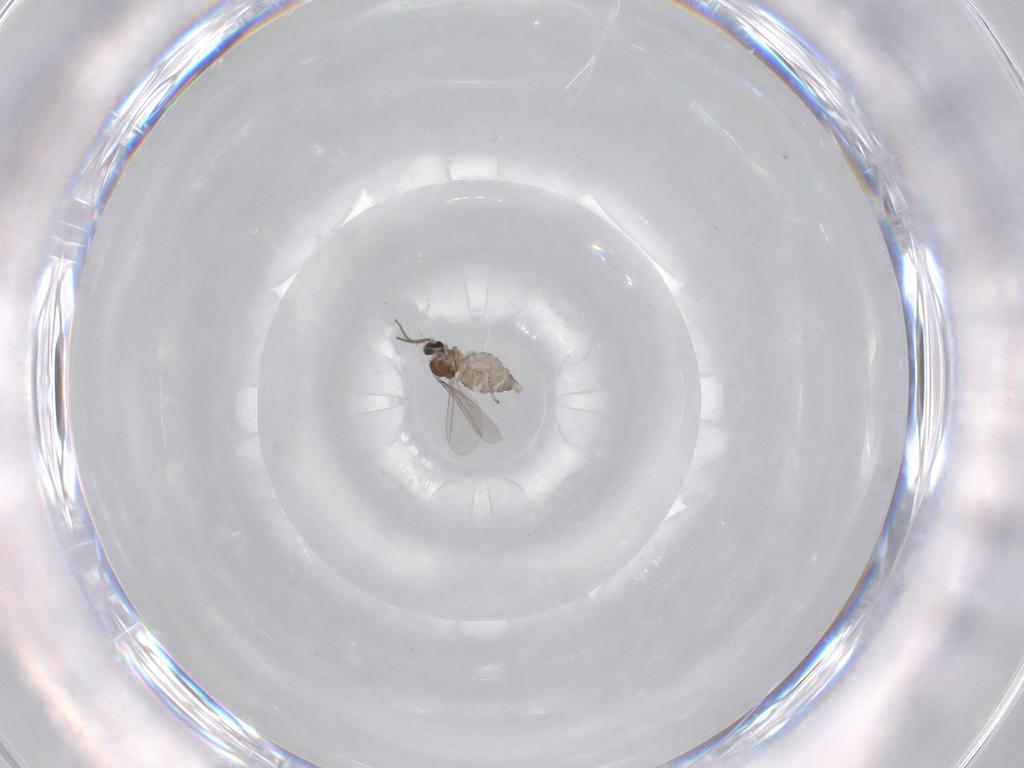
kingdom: Animalia
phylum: Arthropoda
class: Insecta
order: Diptera
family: Cecidomyiidae
